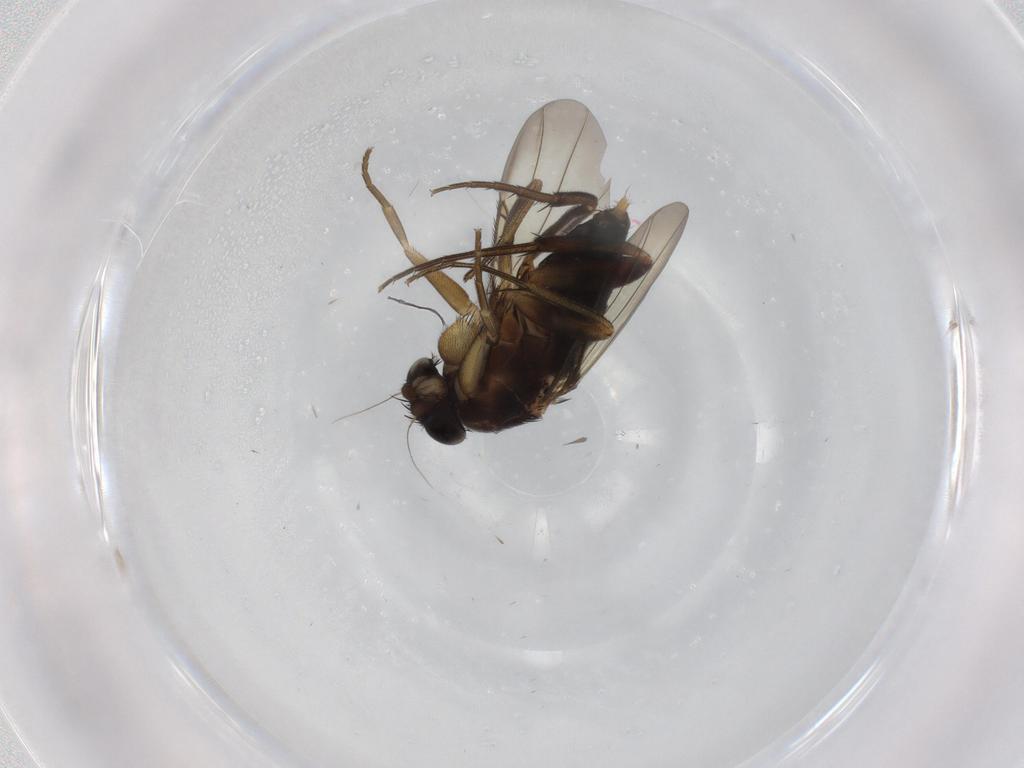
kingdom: Animalia
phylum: Arthropoda
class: Insecta
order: Diptera
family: Phoridae
